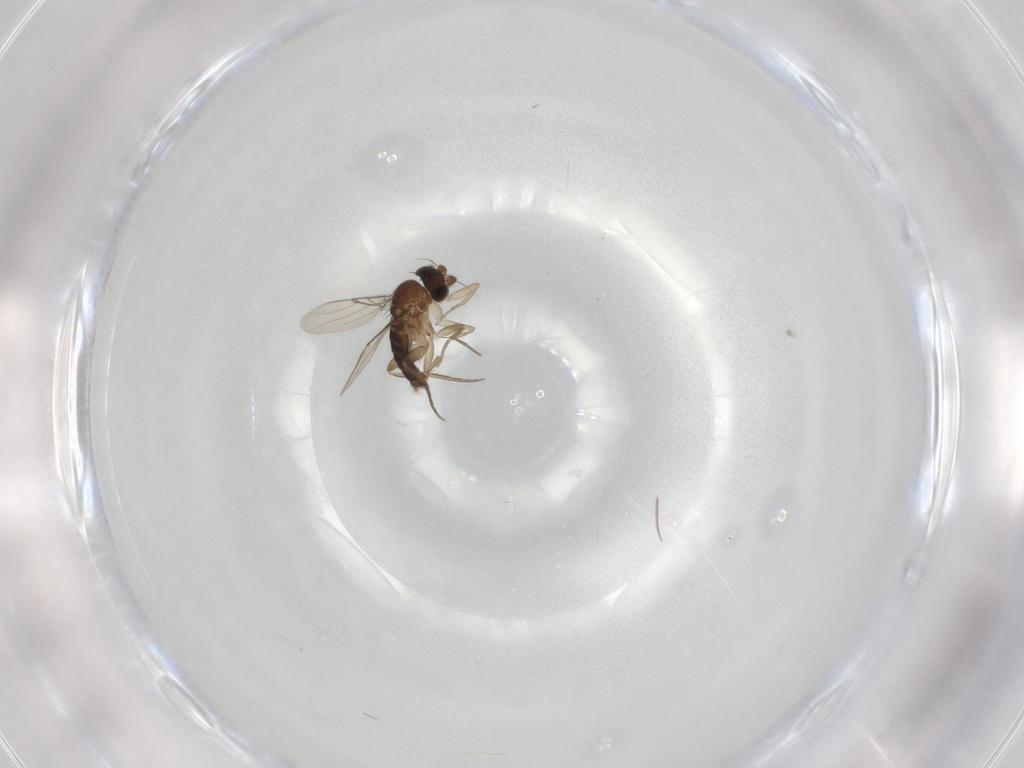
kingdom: Animalia
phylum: Arthropoda
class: Insecta
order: Diptera
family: Phoridae
